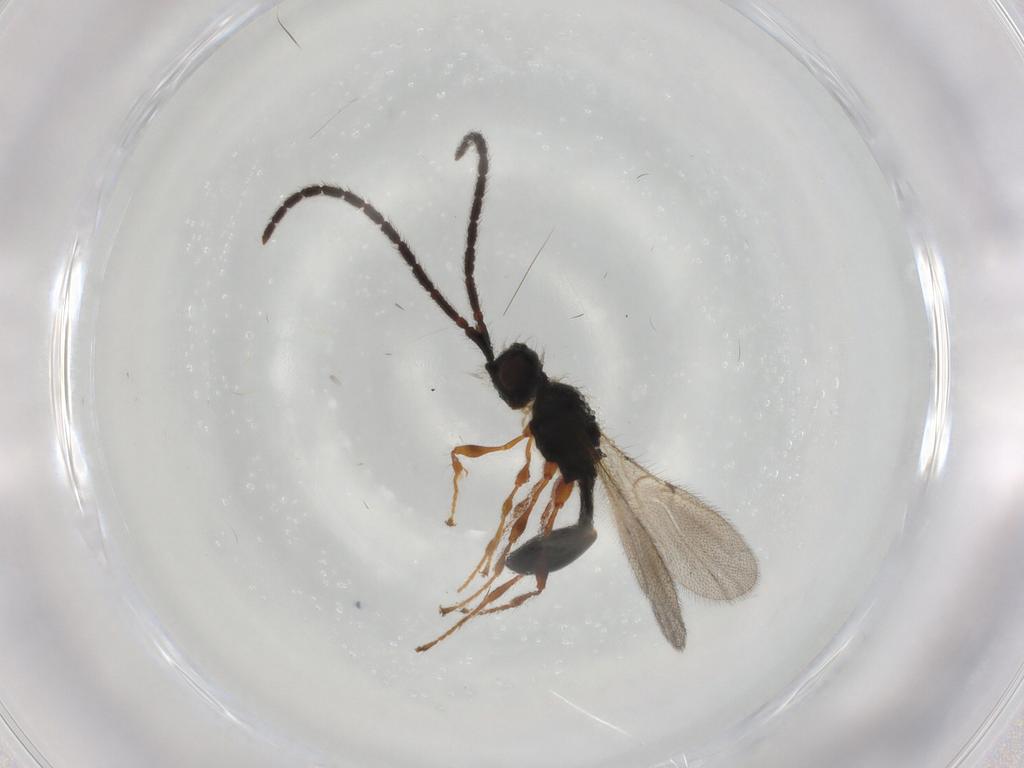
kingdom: Animalia
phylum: Arthropoda
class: Insecta
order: Hymenoptera
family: Diapriidae
